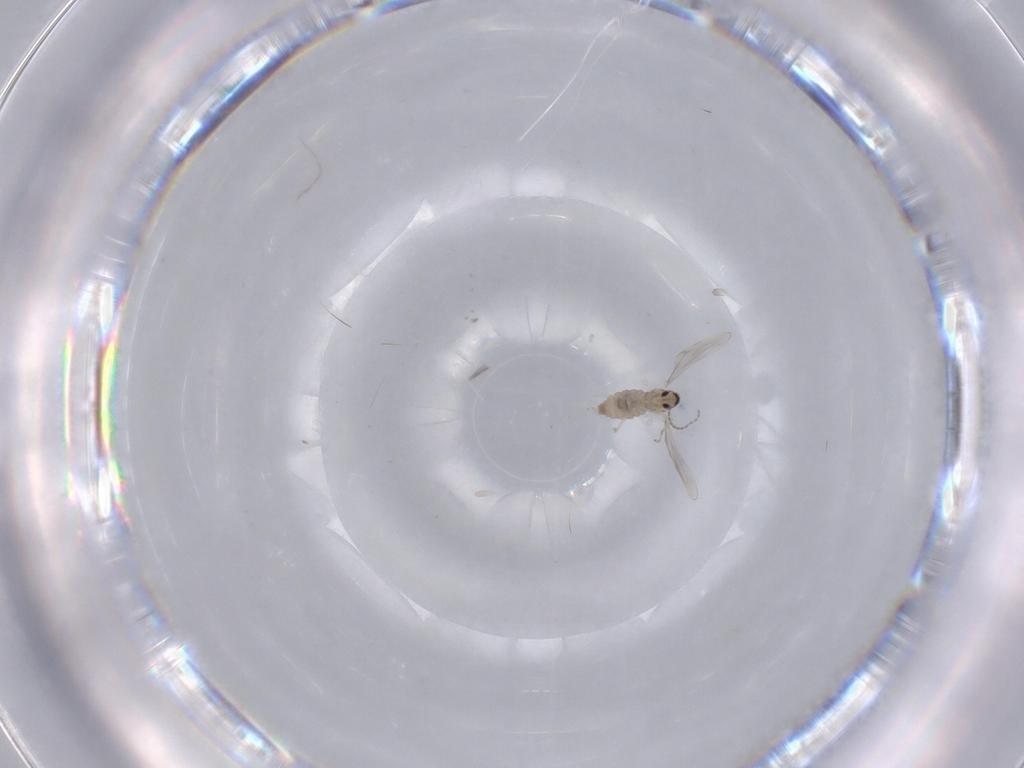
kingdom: Animalia
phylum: Arthropoda
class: Insecta
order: Diptera
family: Cecidomyiidae
